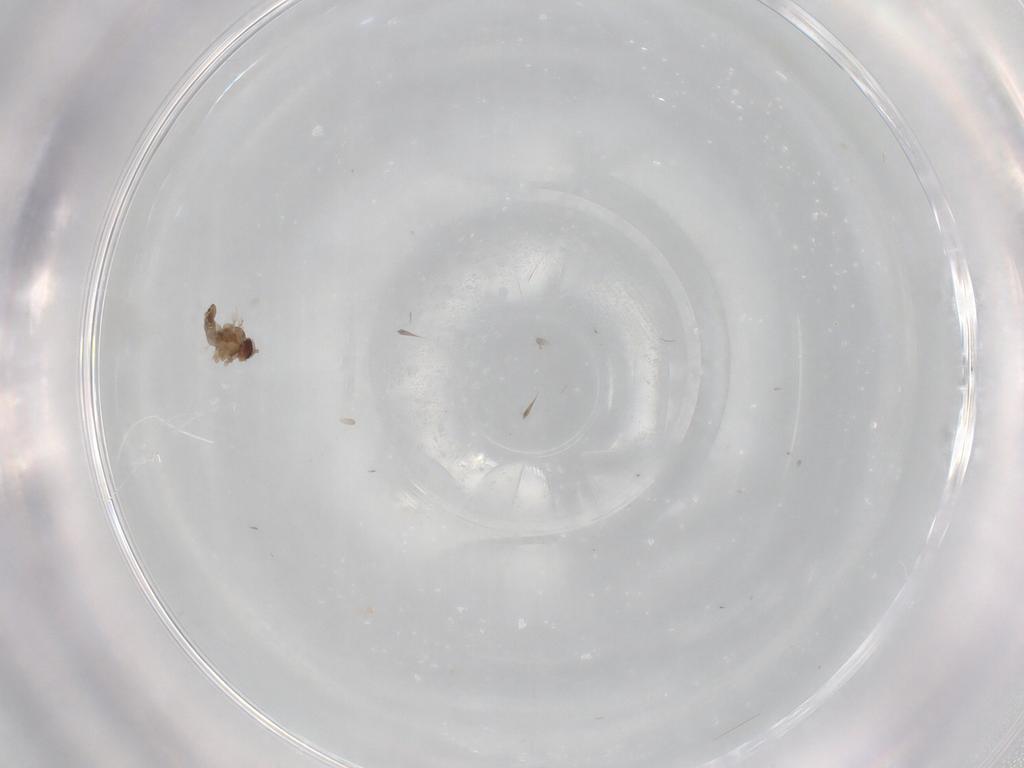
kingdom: Animalia
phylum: Arthropoda
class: Insecta
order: Diptera
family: Cecidomyiidae
